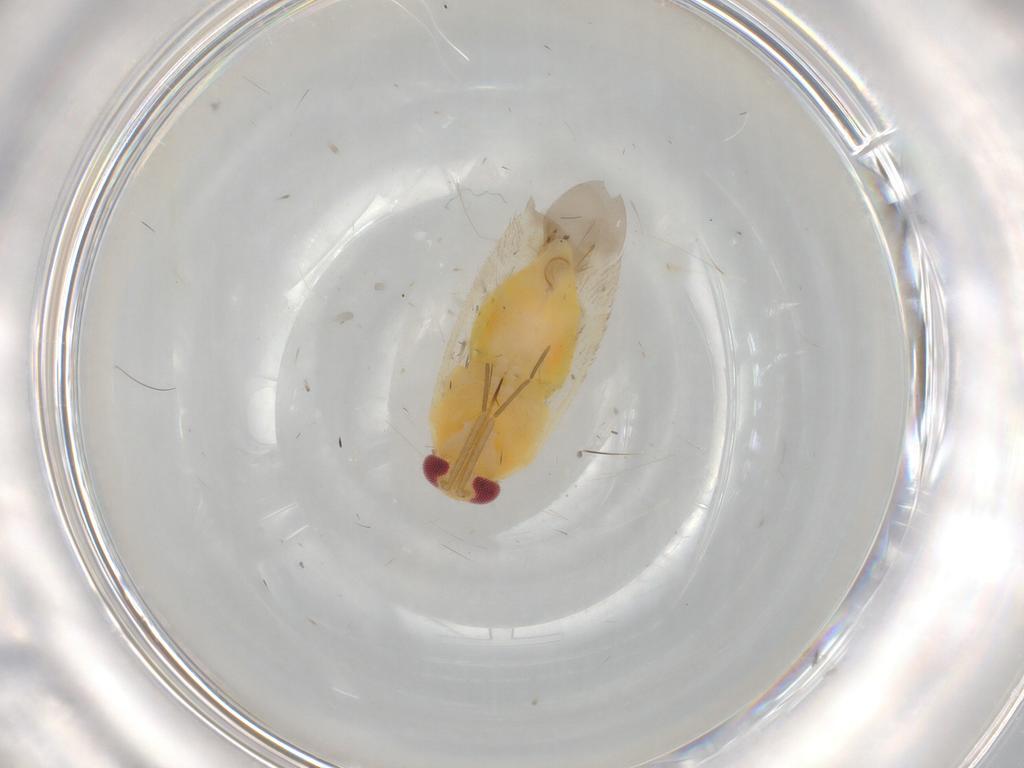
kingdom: Animalia
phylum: Arthropoda
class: Insecta
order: Hemiptera
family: Miridae
